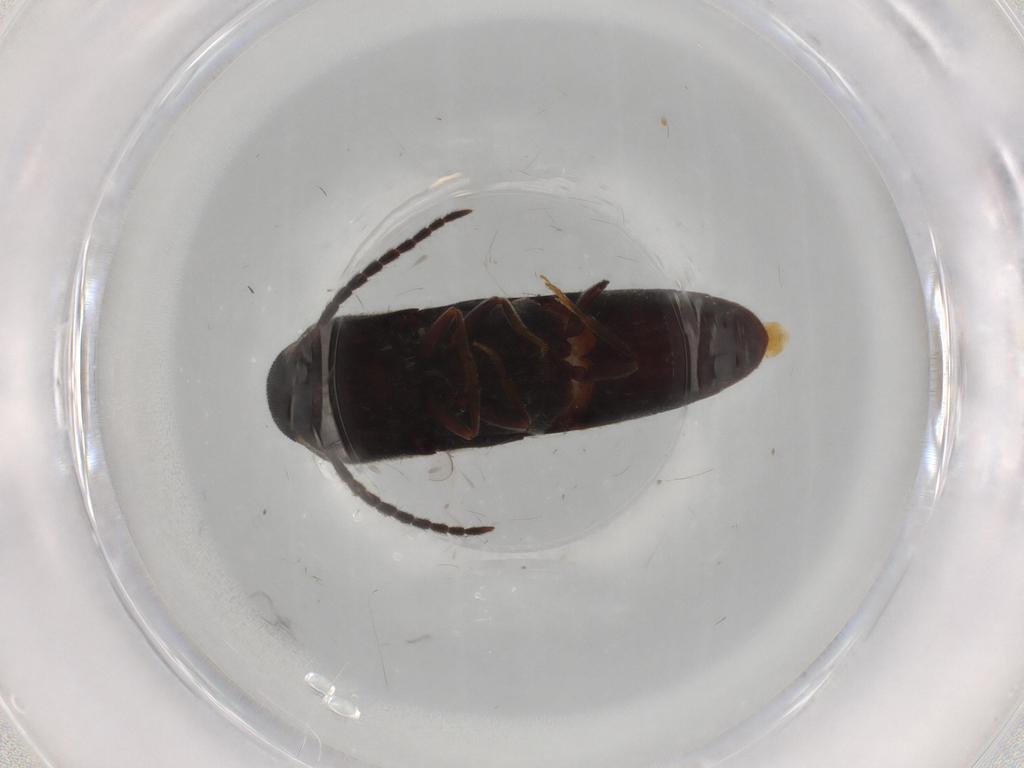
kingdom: Animalia
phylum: Arthropoda
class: Insecta
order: Coleoptera
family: Eucnemidae
